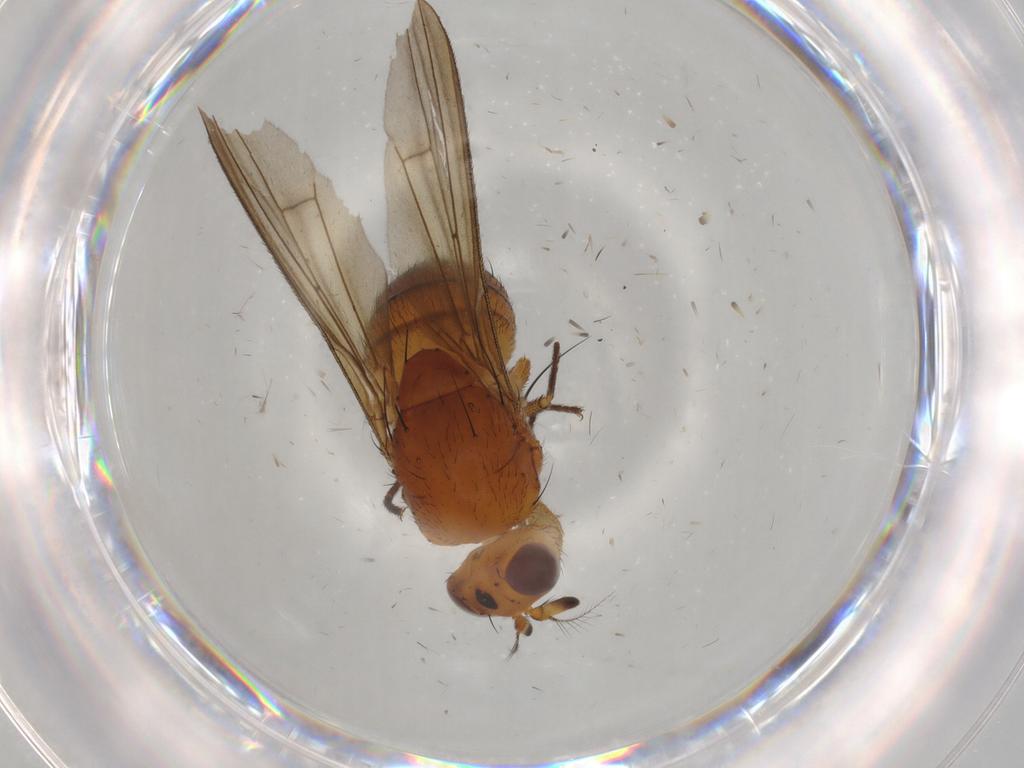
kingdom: Animalia
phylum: Arthropoda
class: Insecta
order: Diptera
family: Lauxaniidae
